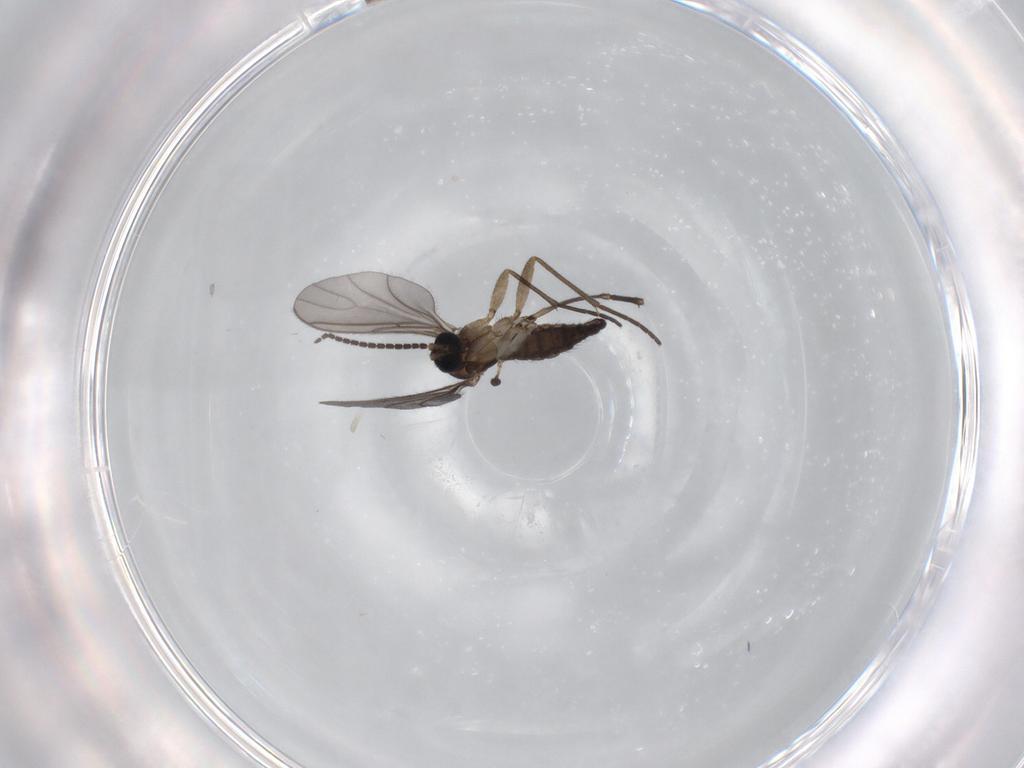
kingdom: Animalia
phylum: Arthropoda
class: Insecta
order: Diptera
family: Sciaridae
